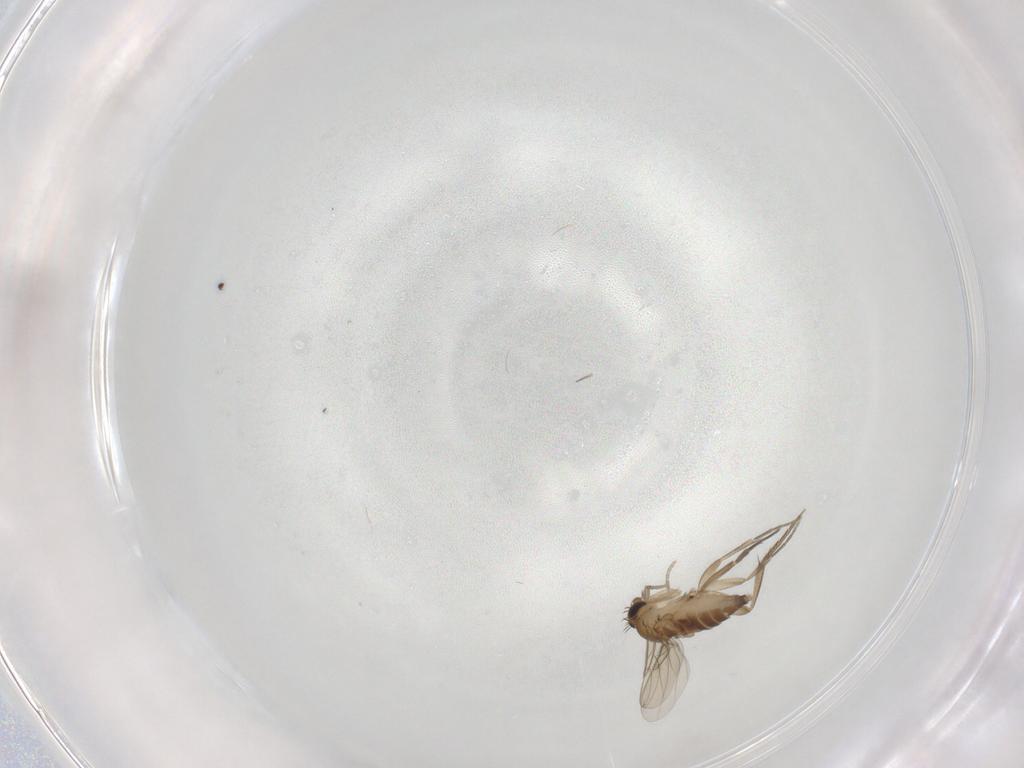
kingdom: Animalia
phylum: Arthropoda
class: Insecta
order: Diptera
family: Phoridae
